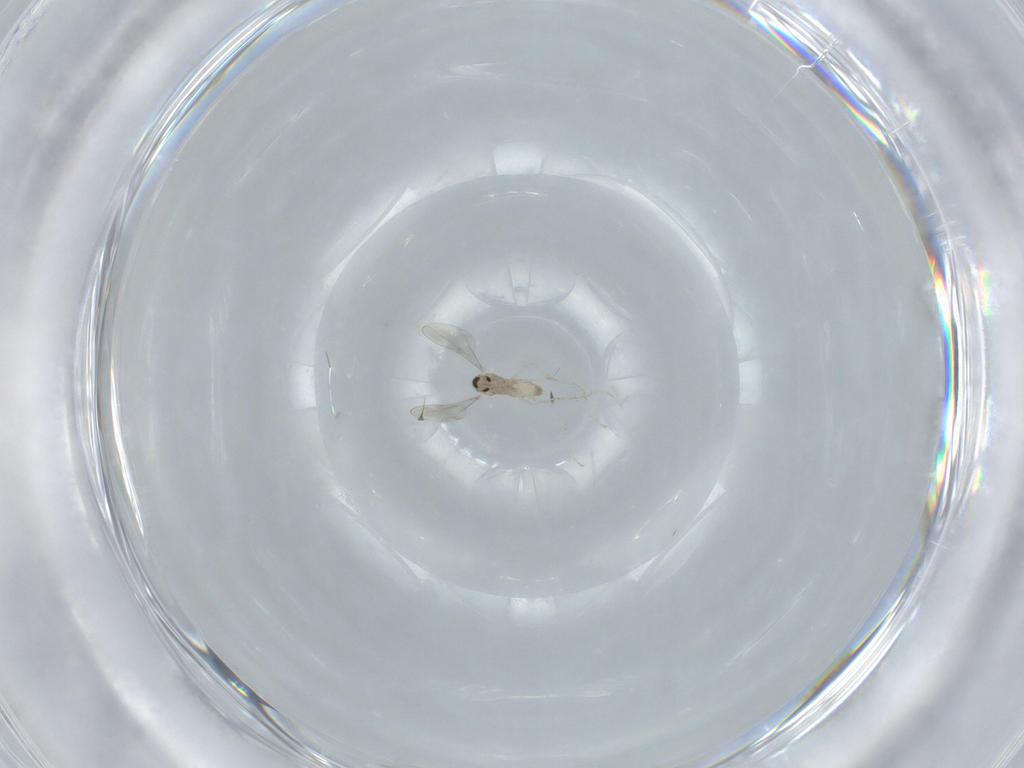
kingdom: Animalia
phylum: Arthropoda
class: Insecta
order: Diptera
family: Cecidomyiidae
